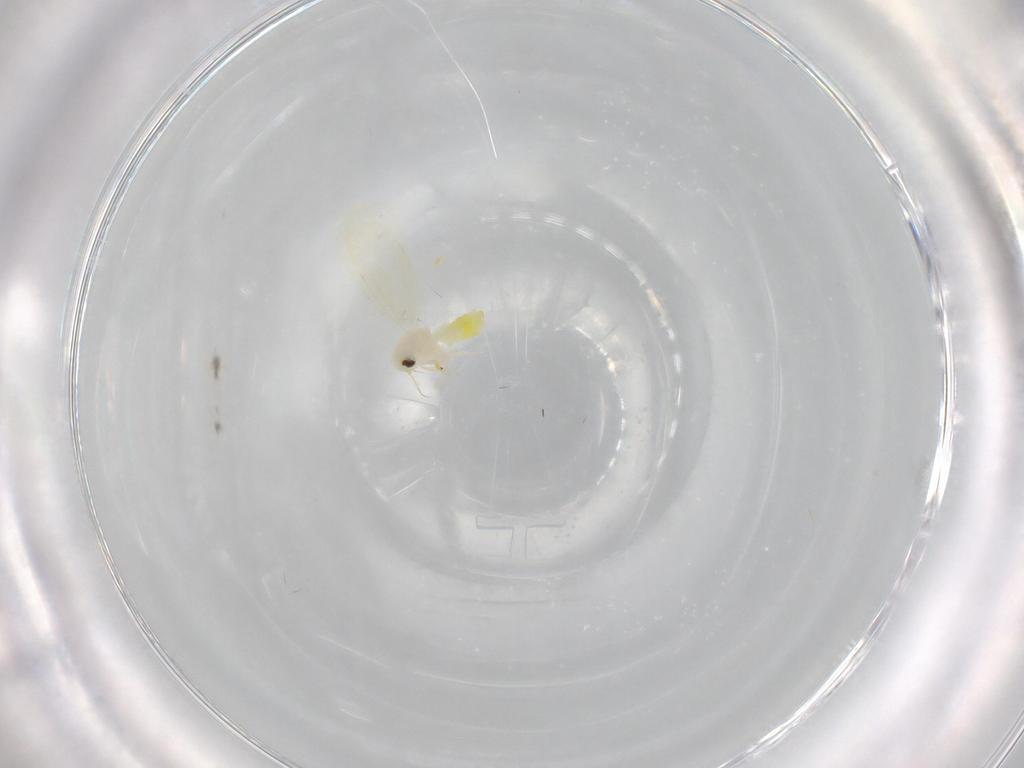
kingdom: Animalia
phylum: Arthropoda
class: Insecta
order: Hemiptera
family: Aleyrodidae
